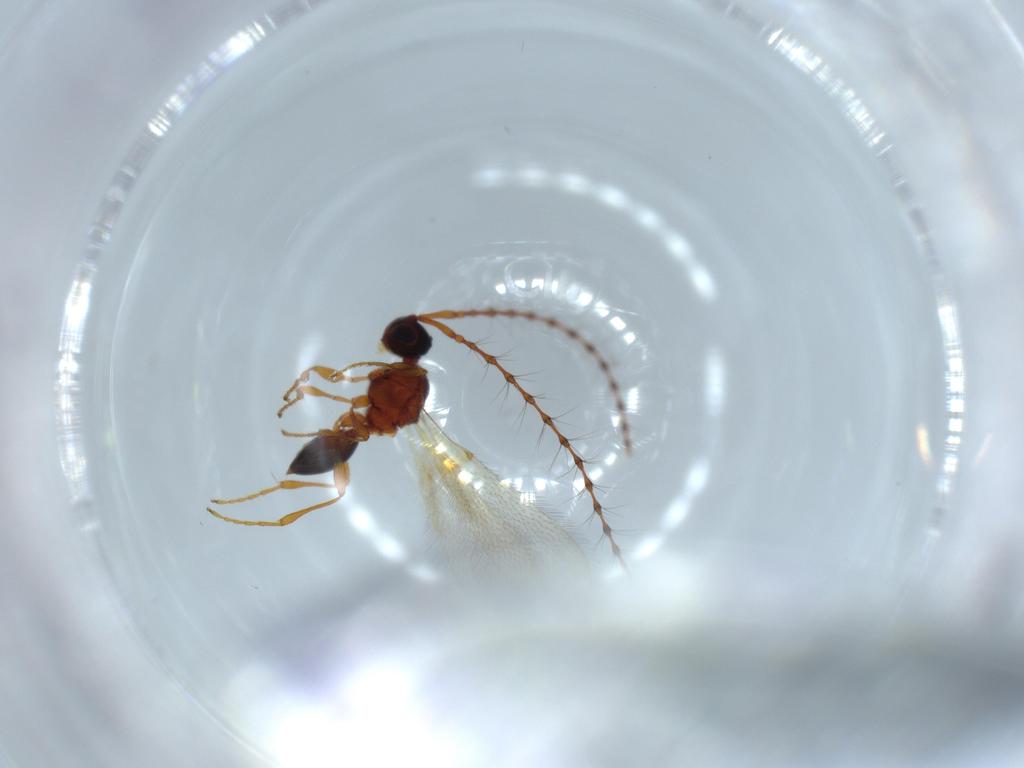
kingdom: Animalia
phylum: Arthropoda
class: Insecta
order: Hymenoptera
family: Diapriidae
